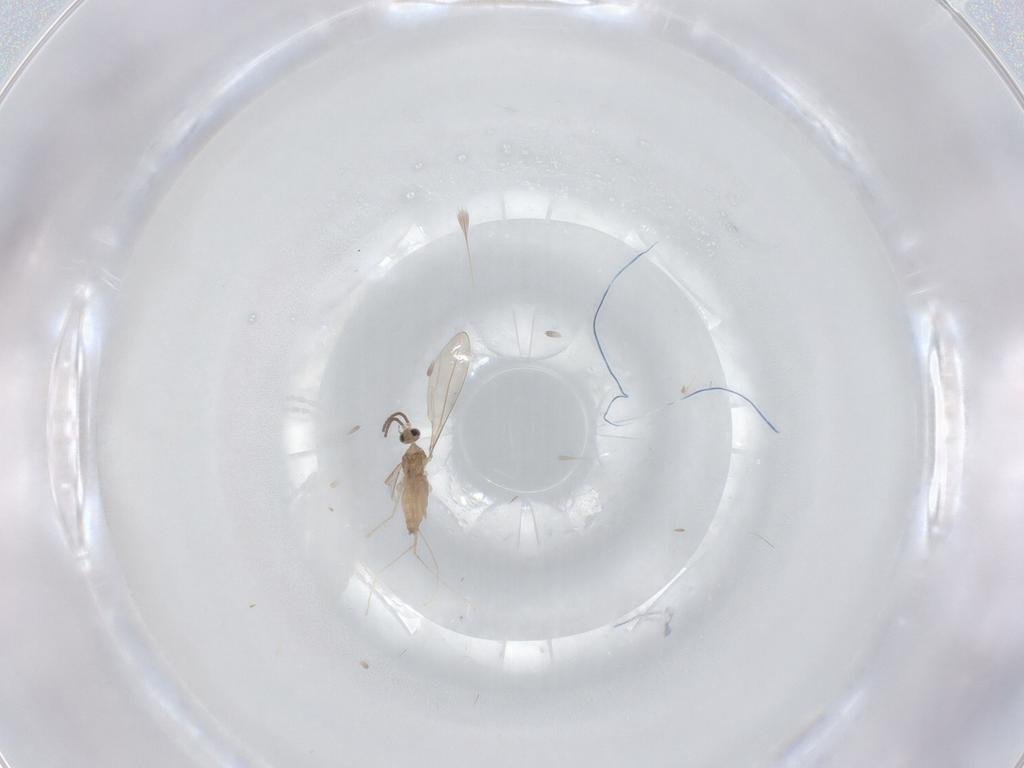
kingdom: Animalia
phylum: Arthropoda
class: Insecta
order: Diptera
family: Cecidomyiidae
